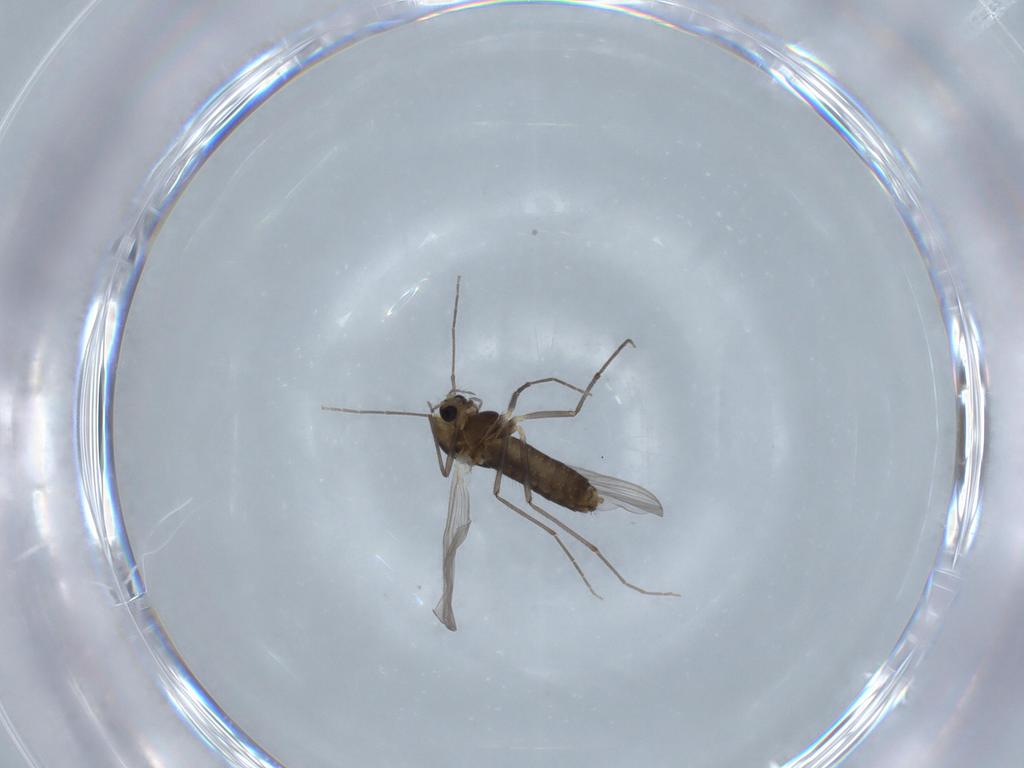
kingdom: Animalia
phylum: Arthropoda
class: Insecta
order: Diptera
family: Chironomidae
